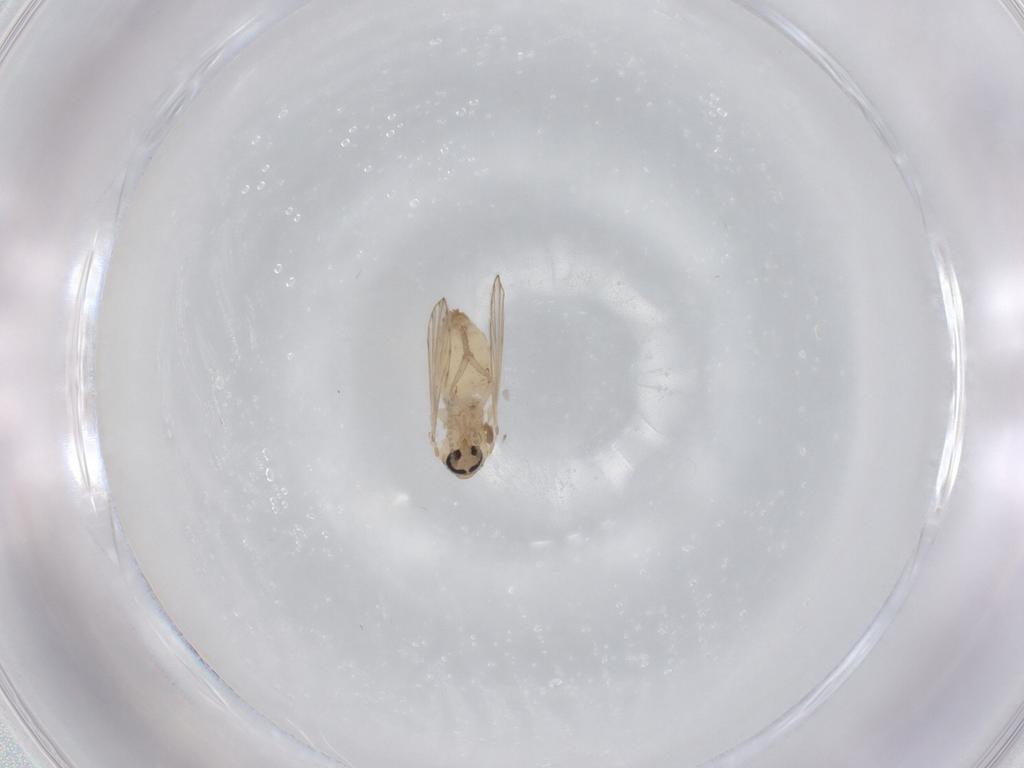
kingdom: Animalia
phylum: Arthropoda
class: Insecta
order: Diptera
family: Psychodidae
